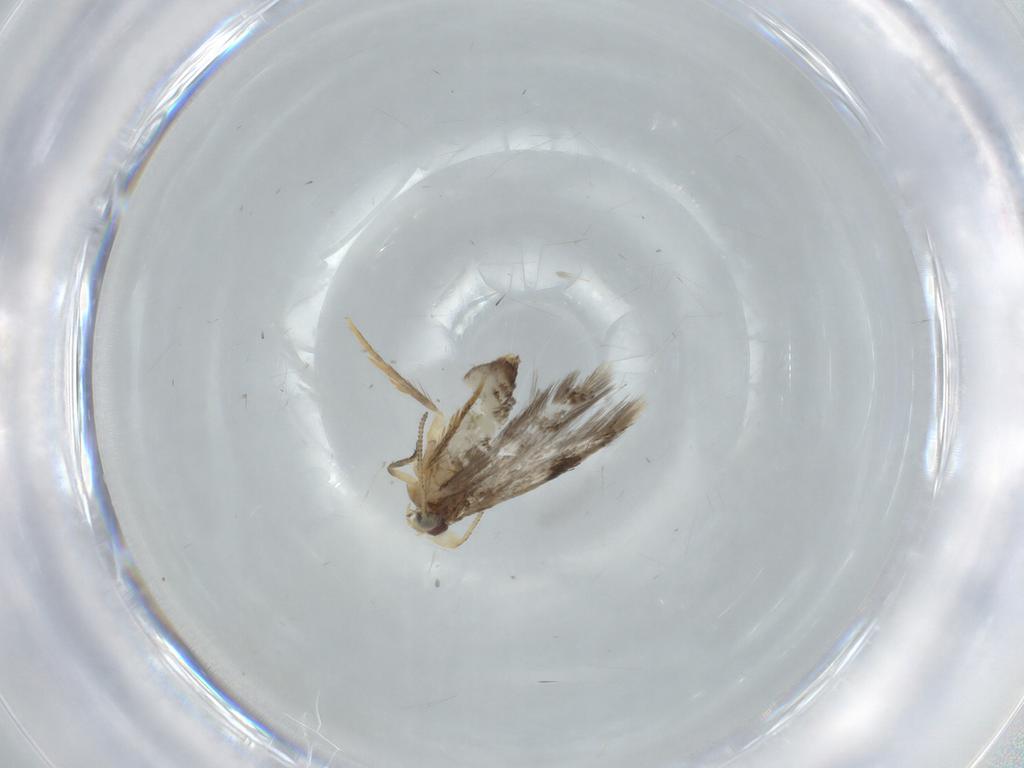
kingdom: Animalia
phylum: Arthropoda
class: Insecta
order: Lepidoptera
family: Nepticulidae
